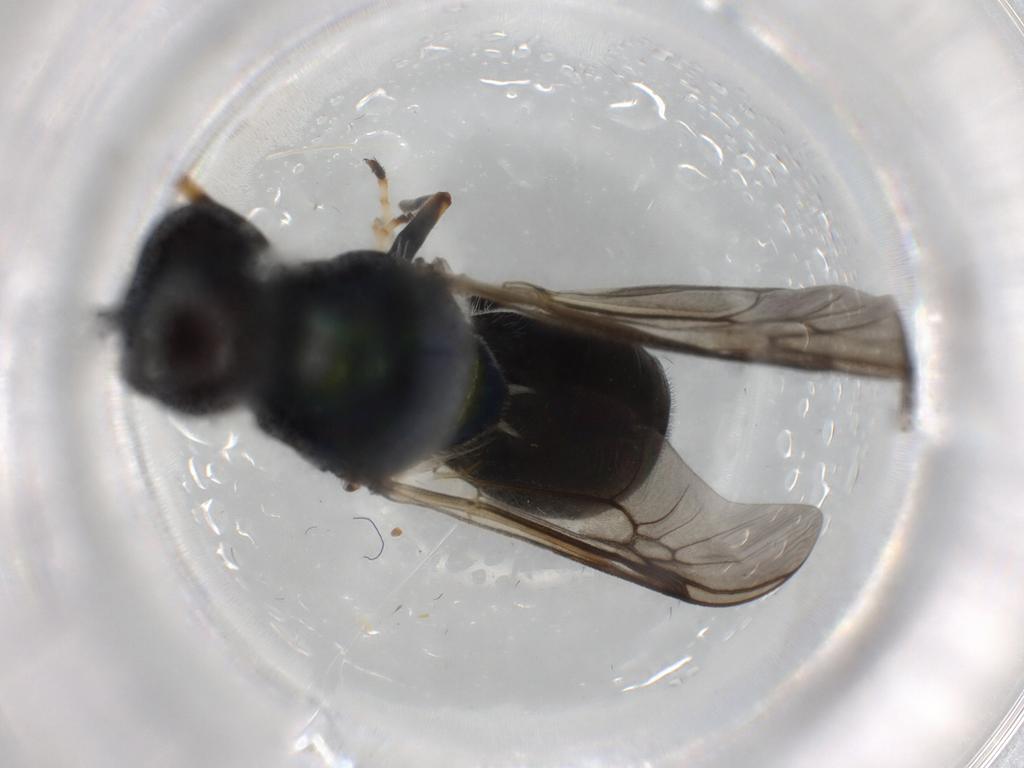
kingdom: Animalia
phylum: Arthropoda
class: Insecta
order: Diptera
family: Stratiomyidae
